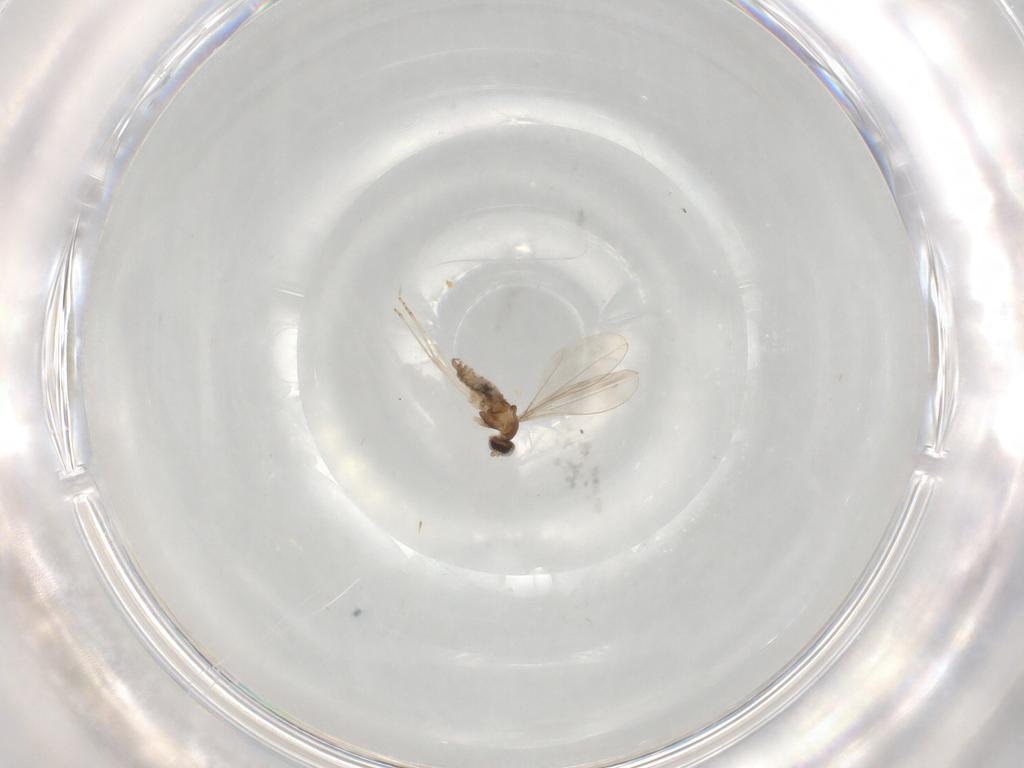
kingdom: Animalia
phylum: Arthropoda
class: Insecta
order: Diptera
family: Cecidomyiidae
